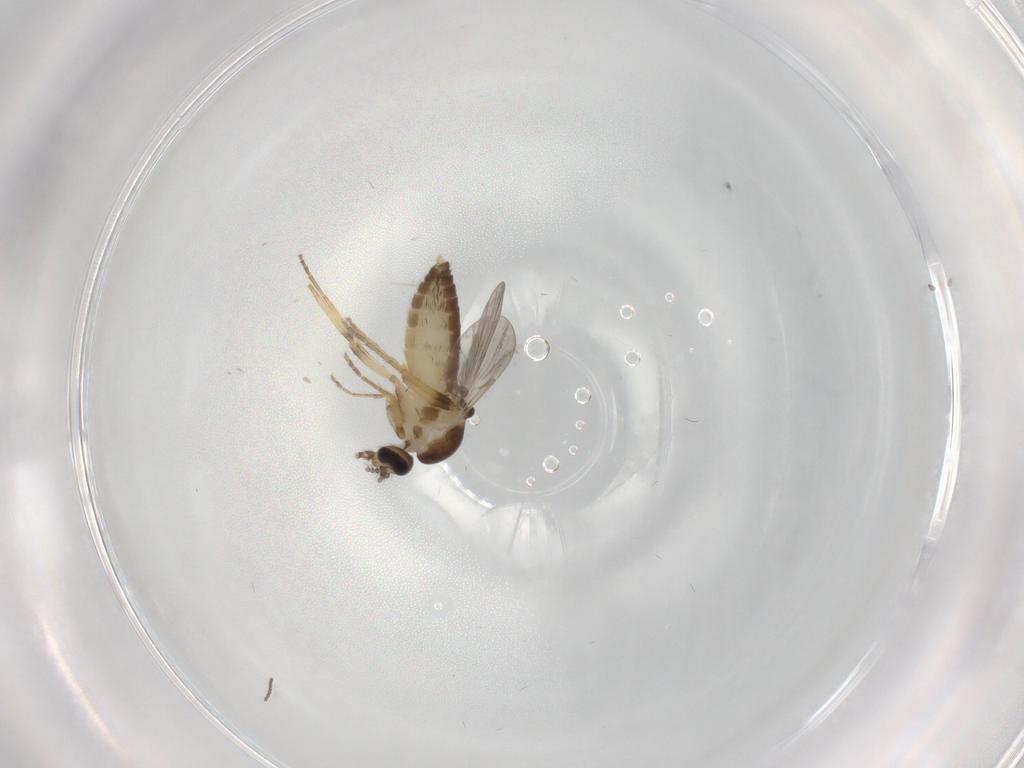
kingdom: Animalia
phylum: Arthropoda
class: Insecta
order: Diptera
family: Ceratopogonidae
